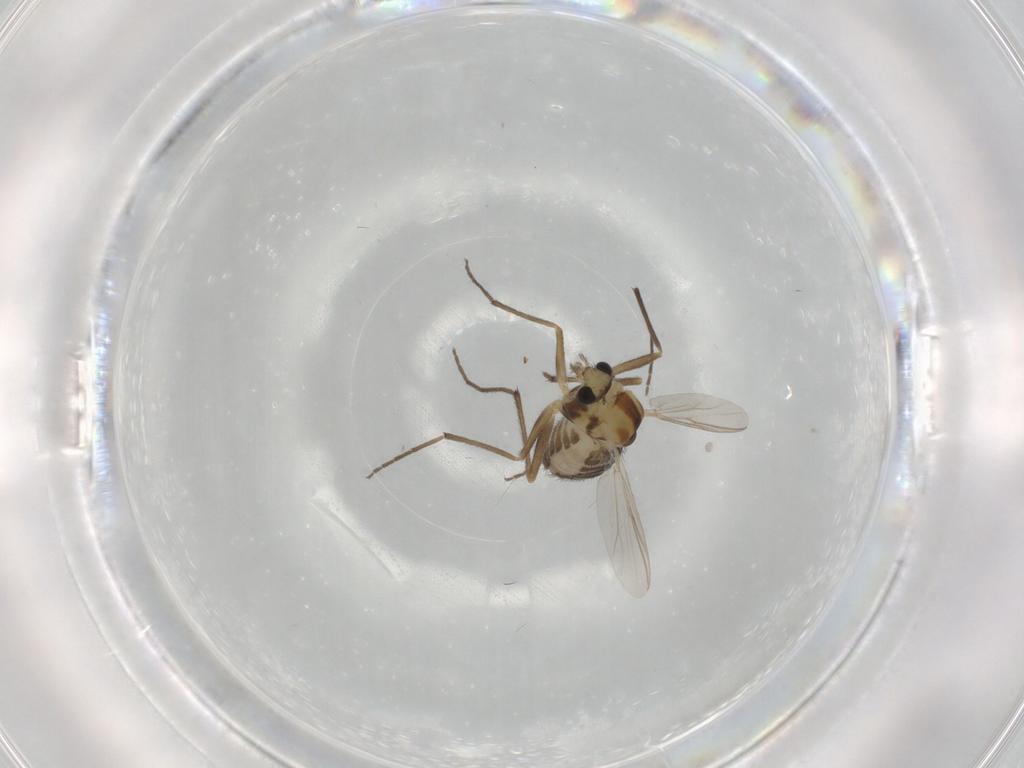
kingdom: Animalia
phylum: Arthropoda
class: Insecta
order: Diptera
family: Chironomidae
